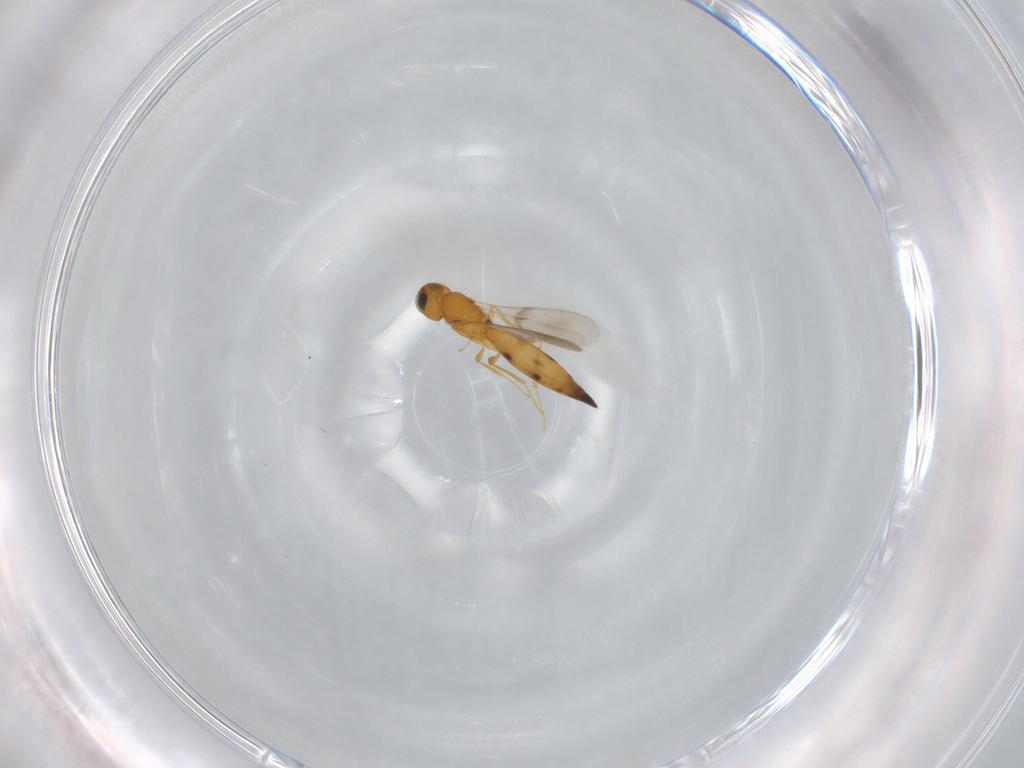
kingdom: Animalia
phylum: Arthropoda
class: Insecta
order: Hymenoptera
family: Scelionidae
